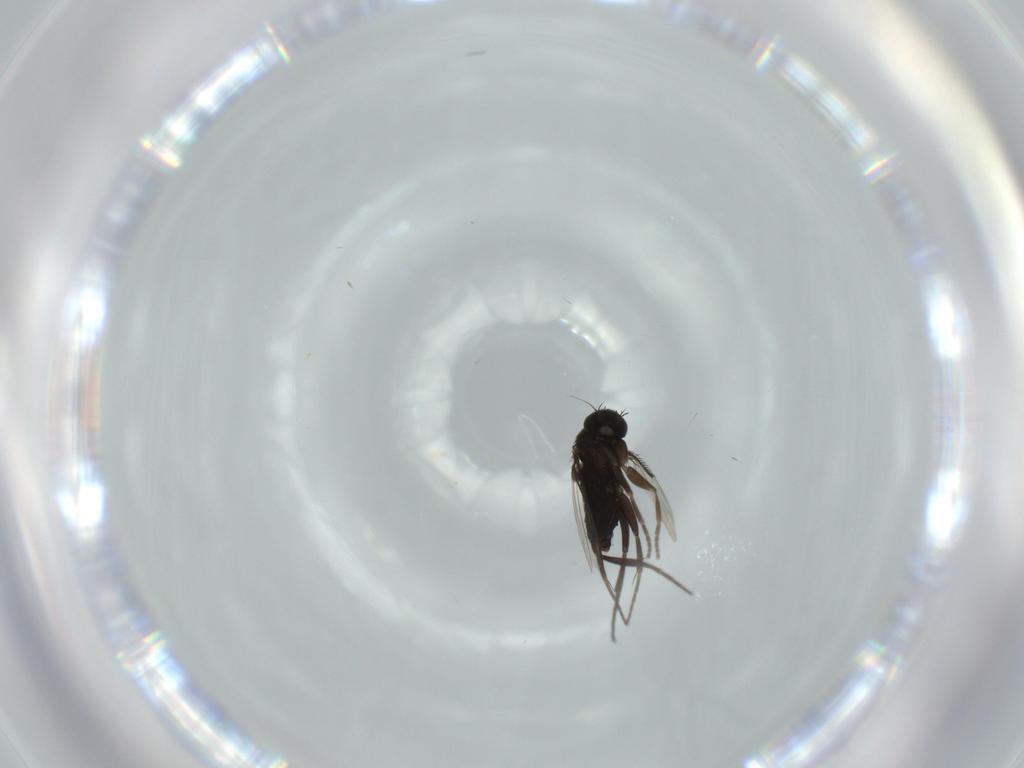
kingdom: Animalia
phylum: Arthropoda
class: Insecta
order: Diptera
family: Phoridae
